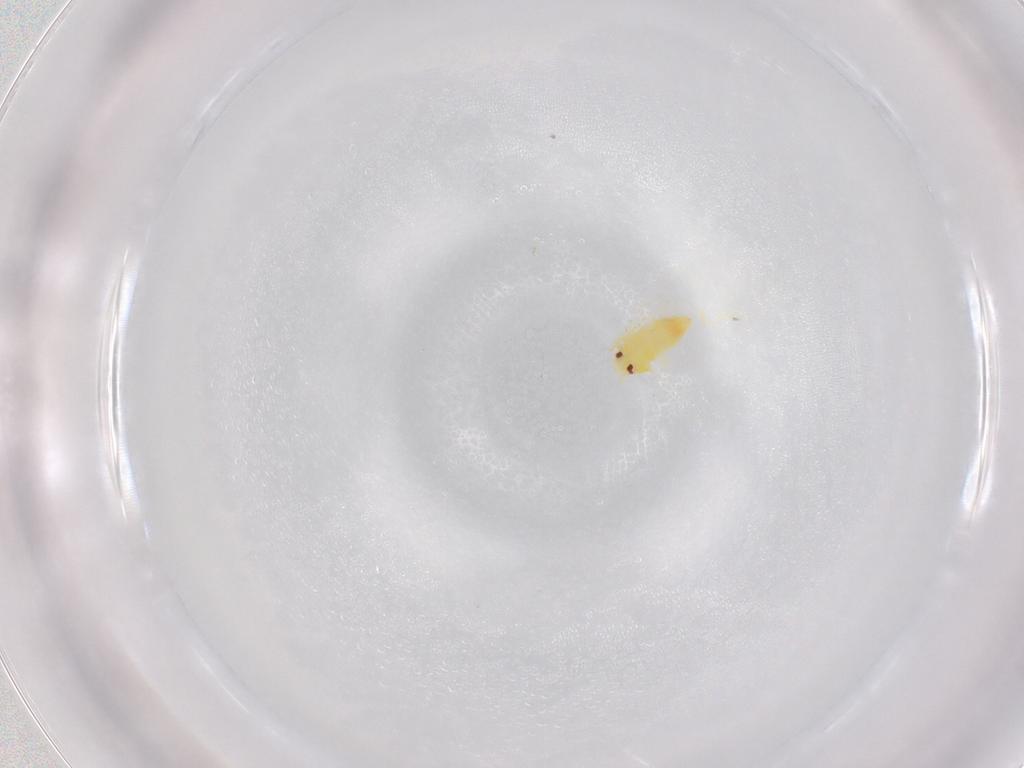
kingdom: Animalia
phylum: Arthropoda
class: Insecta
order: Hemiptera
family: Aleyrodidae
